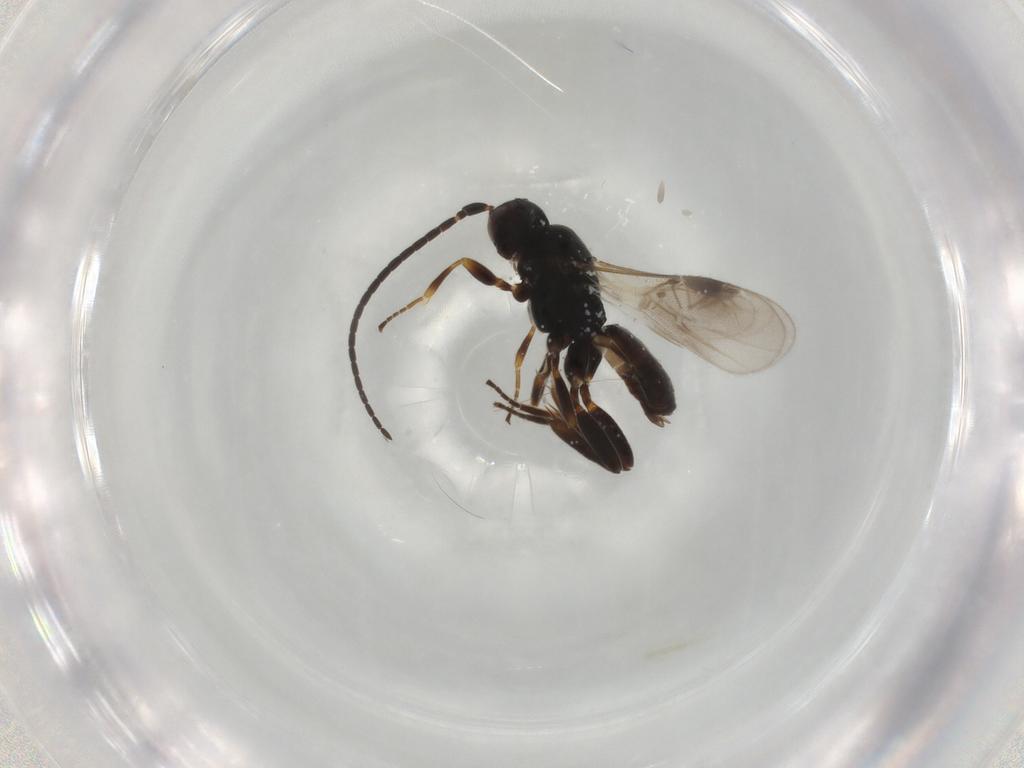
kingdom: Animalia
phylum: Arthropoda
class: Insecta
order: Hymenoptera
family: Braconidae
